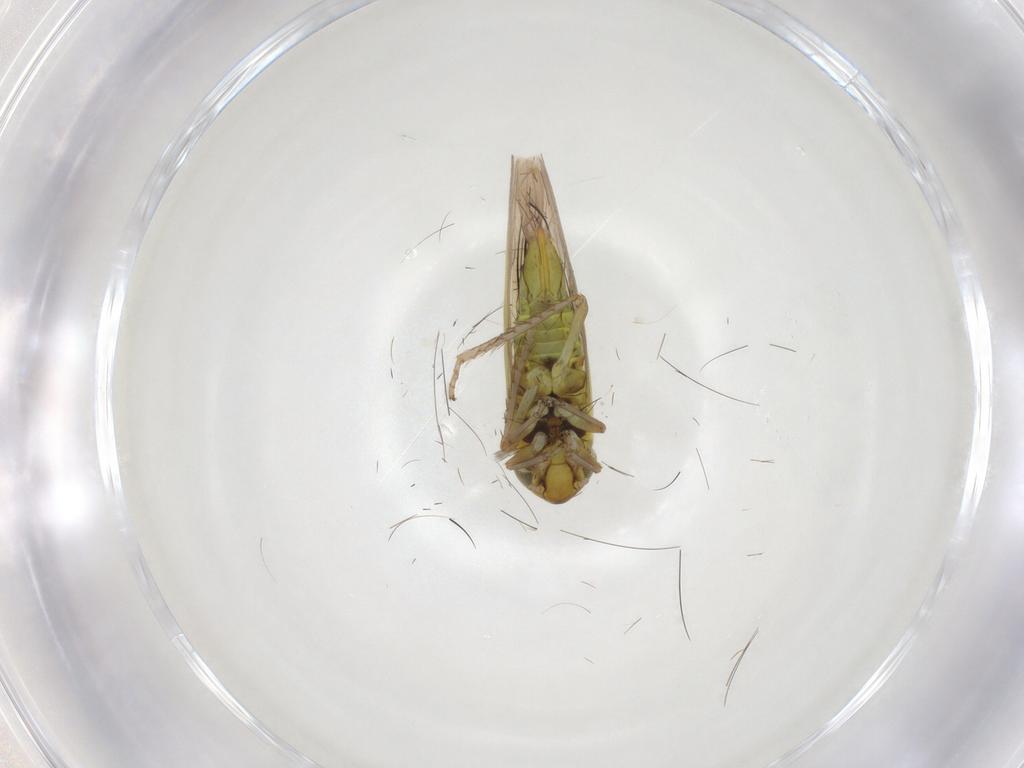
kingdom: Animalia
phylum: Arthropoda
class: Insecta
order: Hemiptera
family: Cicadellidae
